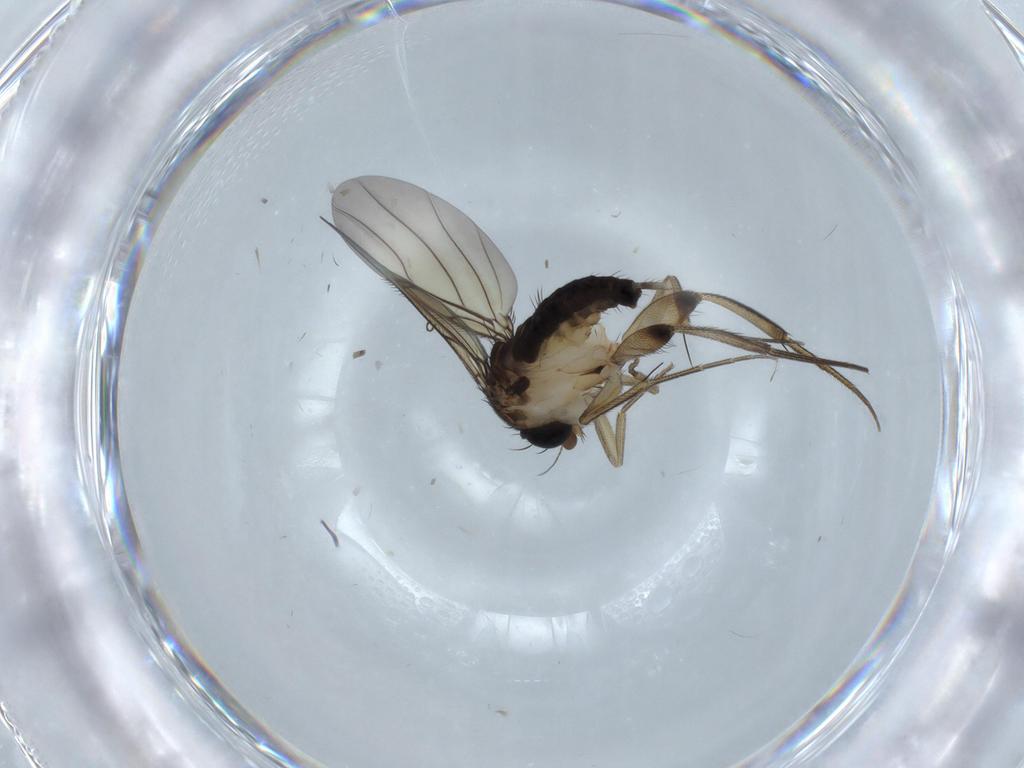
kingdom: Animalia
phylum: Arthropoda
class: Insecta
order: Diptera
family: Phoridae
